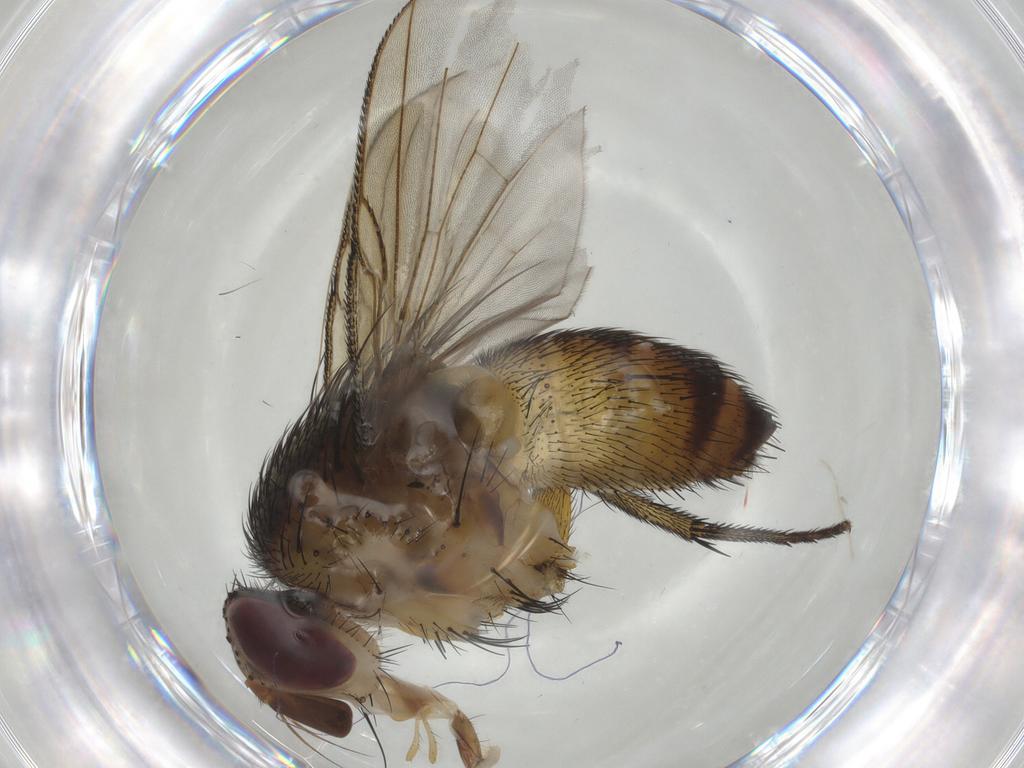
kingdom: Animalia
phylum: Arthropoda
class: Insecta
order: Diptera
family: Tachinidae
